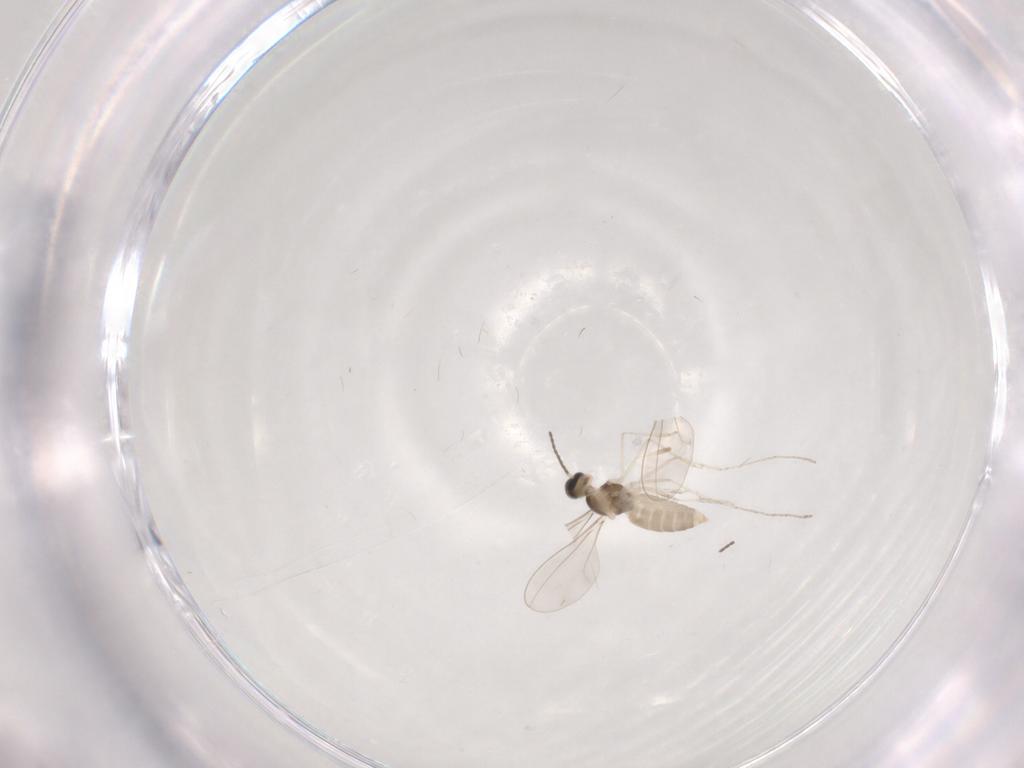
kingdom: Animalia
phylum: Arthropoda
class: Insecta
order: Diptera
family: Cecidomyiidae
